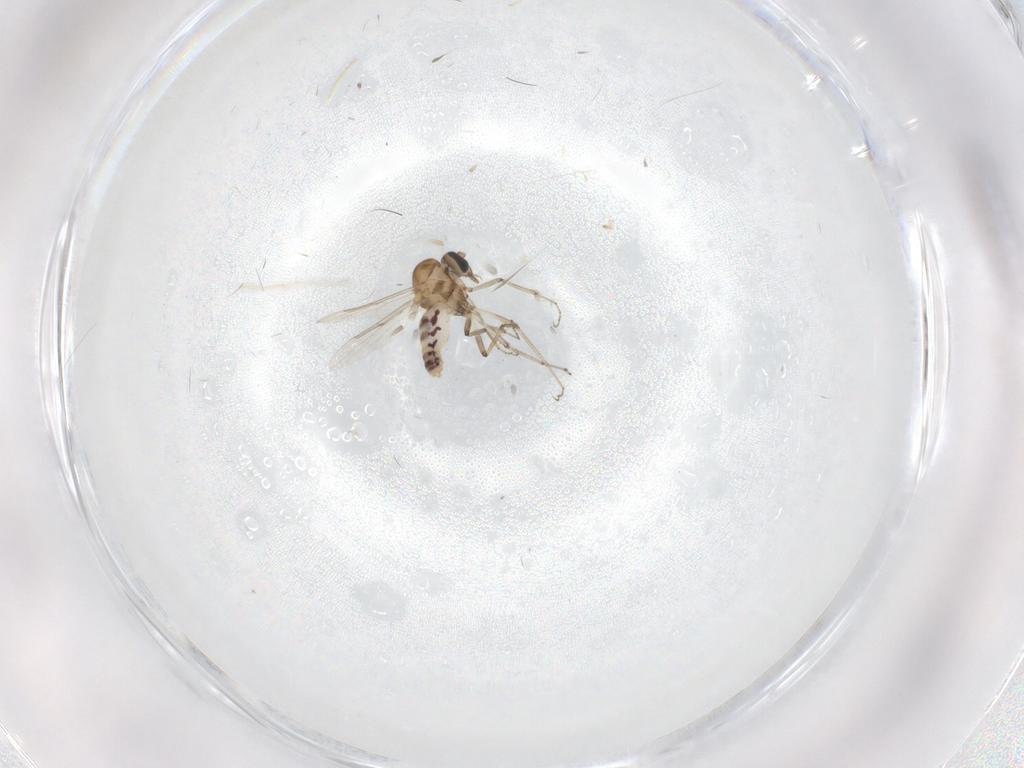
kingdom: Animalia
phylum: Arthropoda
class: Insecta
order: Diptera
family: Ceratopogonidae
